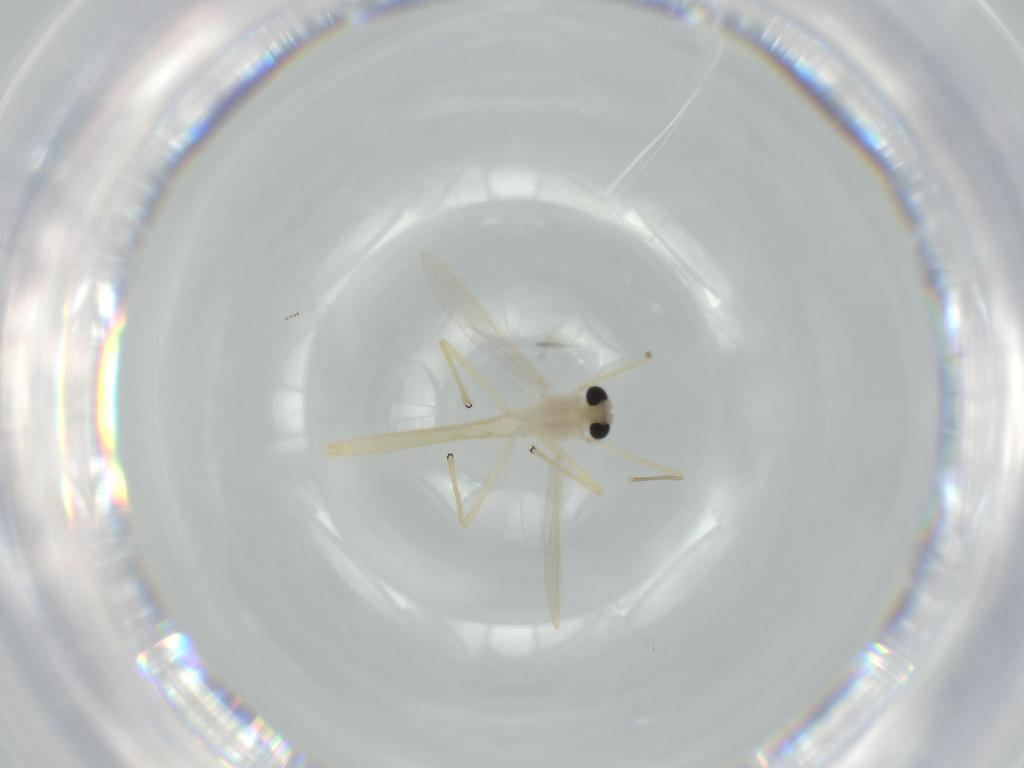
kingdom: Animalia
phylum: Arthropoda
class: Insecta
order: Diptera
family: Chironomidae
